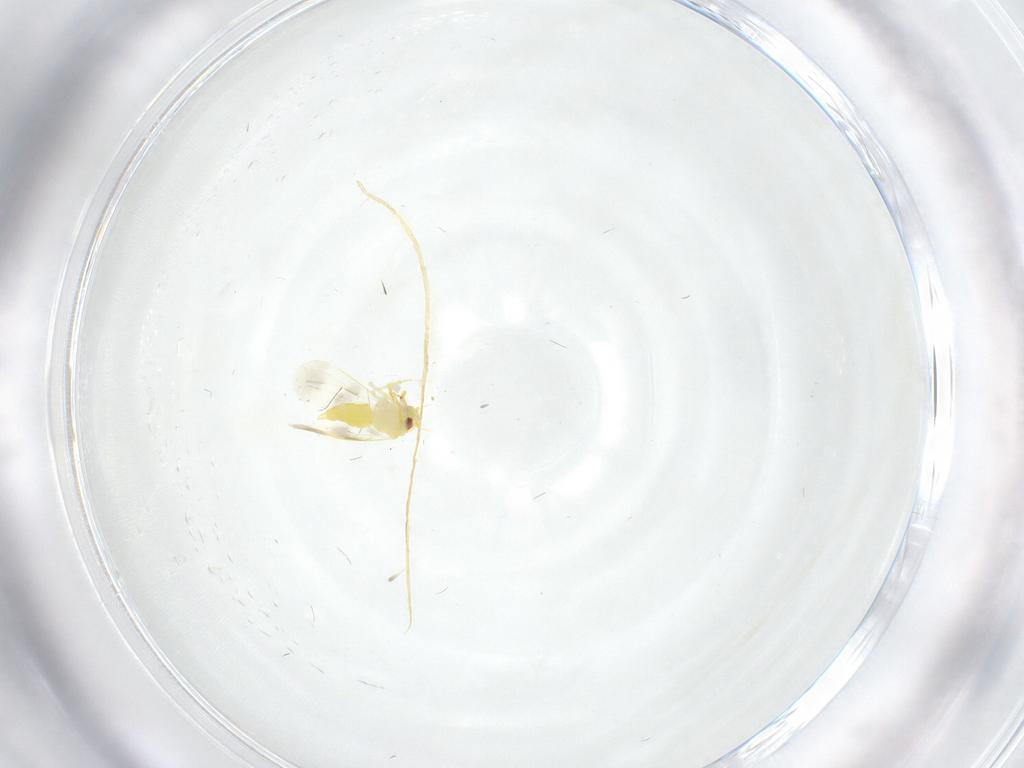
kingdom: Animalia
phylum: Arthropoda
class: Insecta
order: Hemiptera
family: Aleyrodidae
